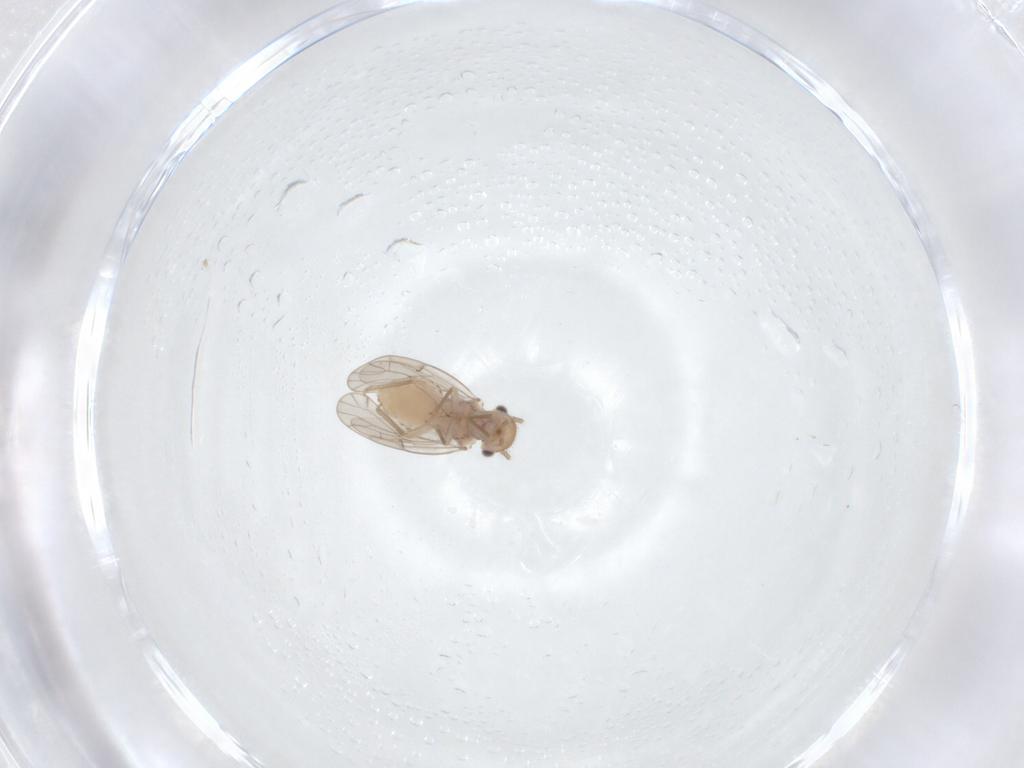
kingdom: Animalia
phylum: Arthropoda
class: Insecta
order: Psocodea
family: Ectopsocidae
